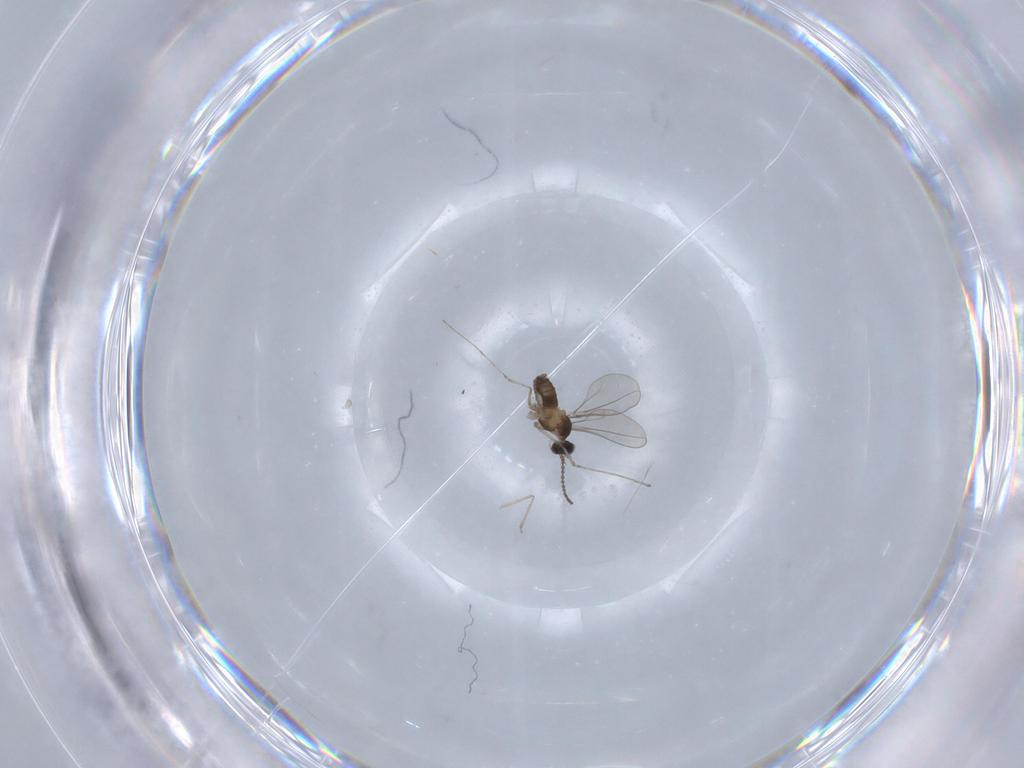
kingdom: Animalia
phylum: Arthropoda
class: Insecta
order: Diptera
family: Cecidomyiidae
